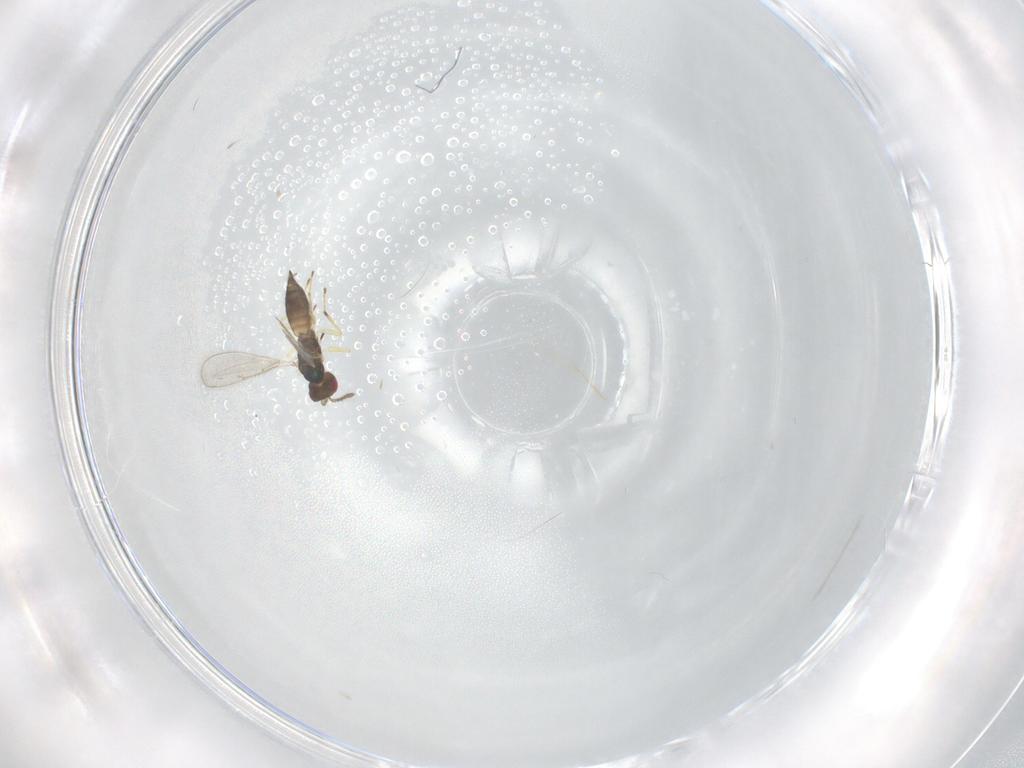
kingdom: Animalia
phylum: Arthropoda
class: Insecta
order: Hymenoptera
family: Eulophidae
